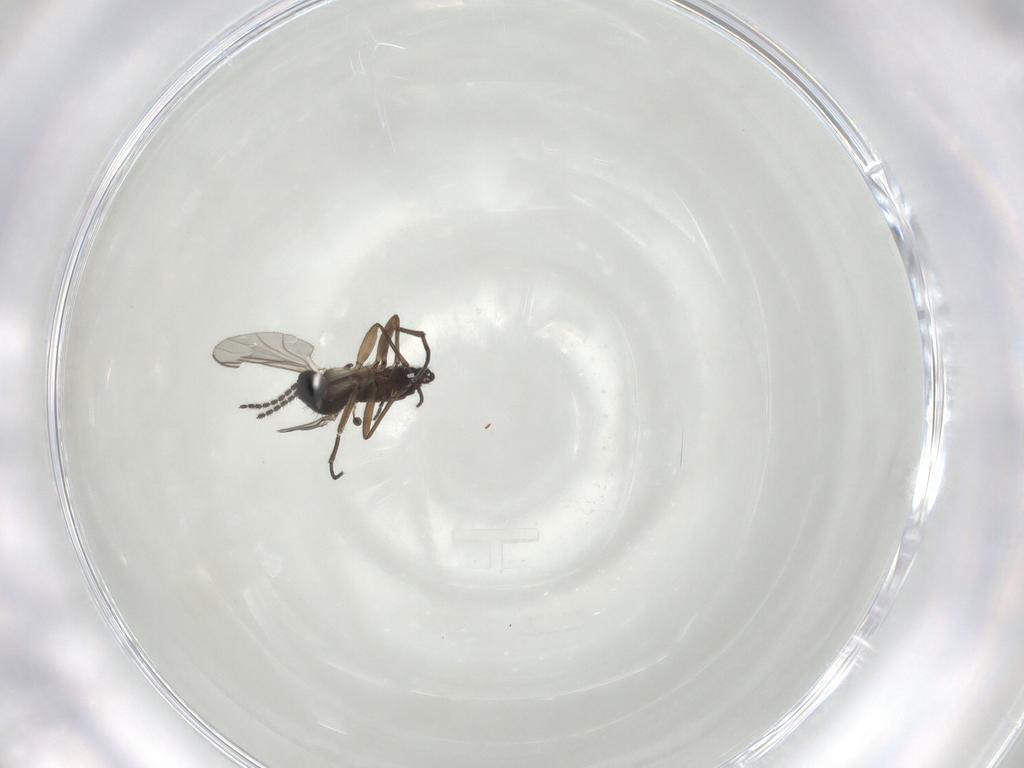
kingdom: Animalia
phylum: Arthropoda
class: Insecta
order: Diptera
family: Sciaridae
